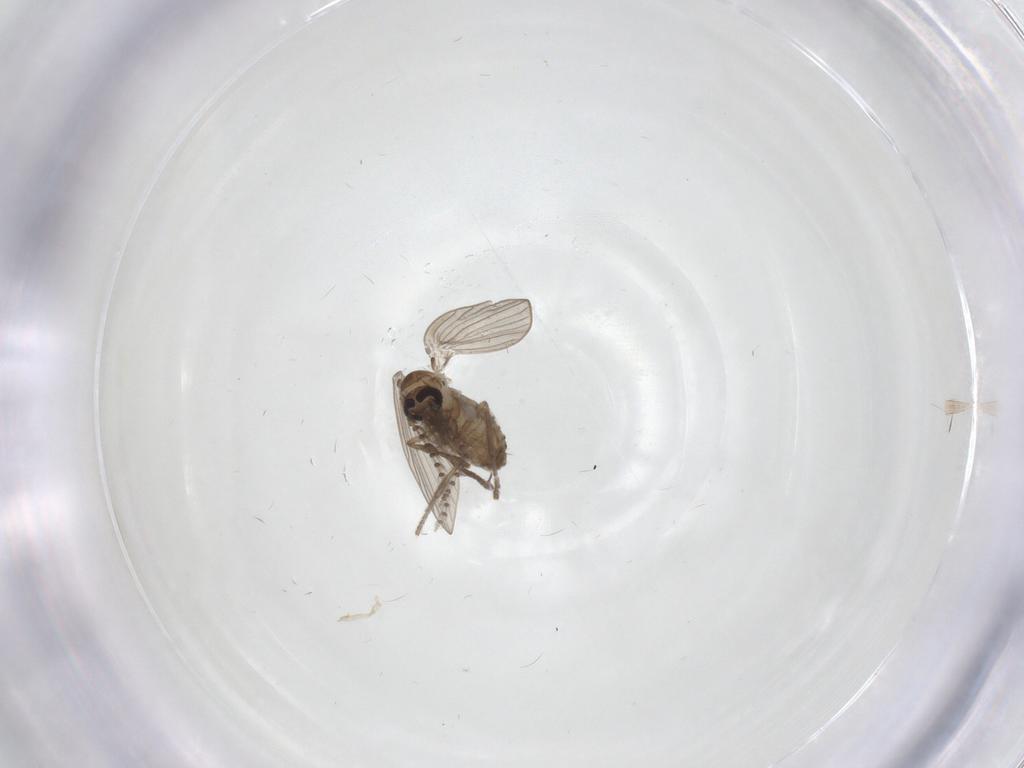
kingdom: Animalia
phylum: Arthropoda
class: Insecta
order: Diptera
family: Psychodidae
